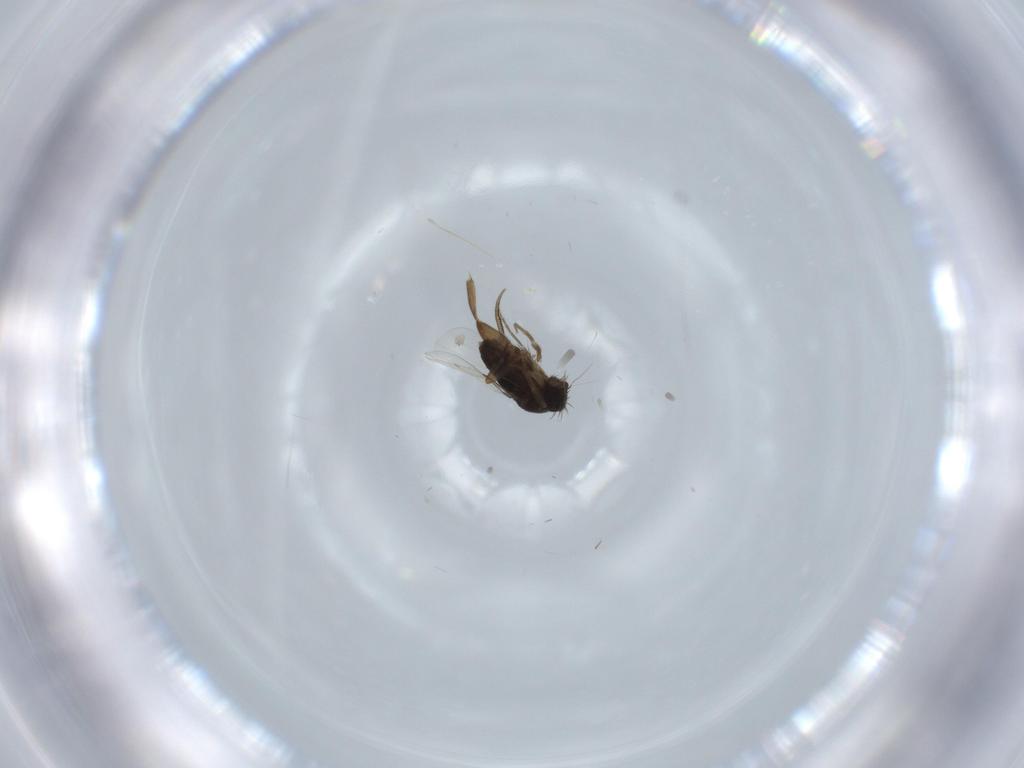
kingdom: Animalia
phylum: Arthropoda
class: Insecta
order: Diptera
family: Phoridae
